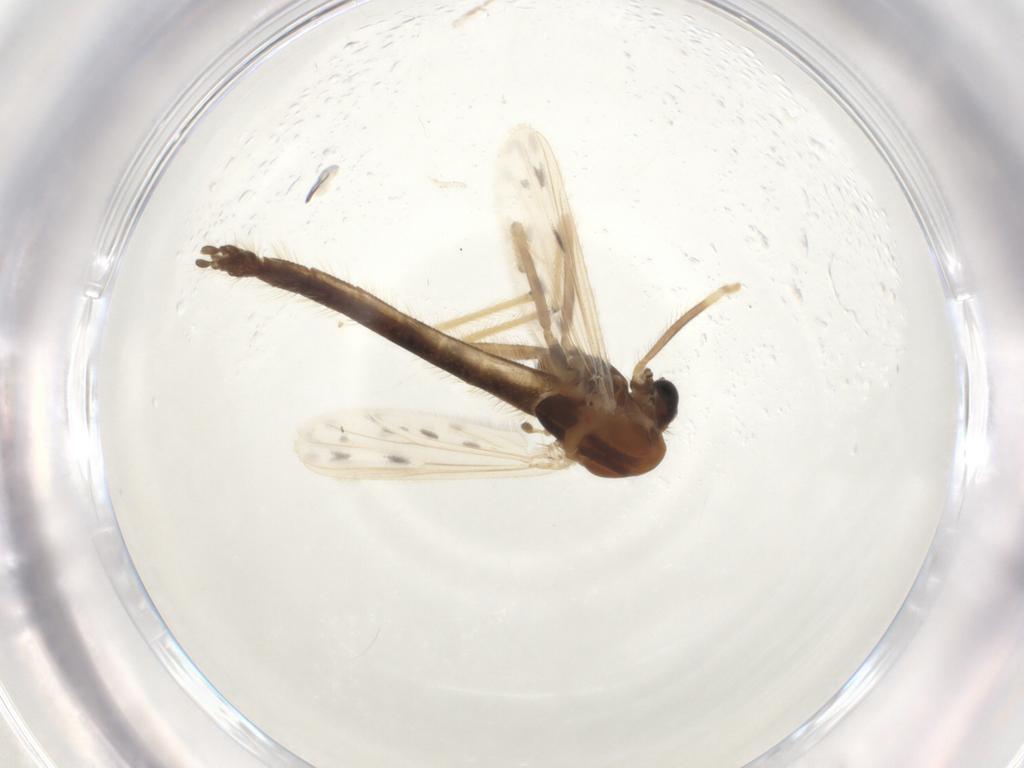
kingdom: Animalia
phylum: Arthropoda
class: Insecta
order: Diptera
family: Chironomidae
